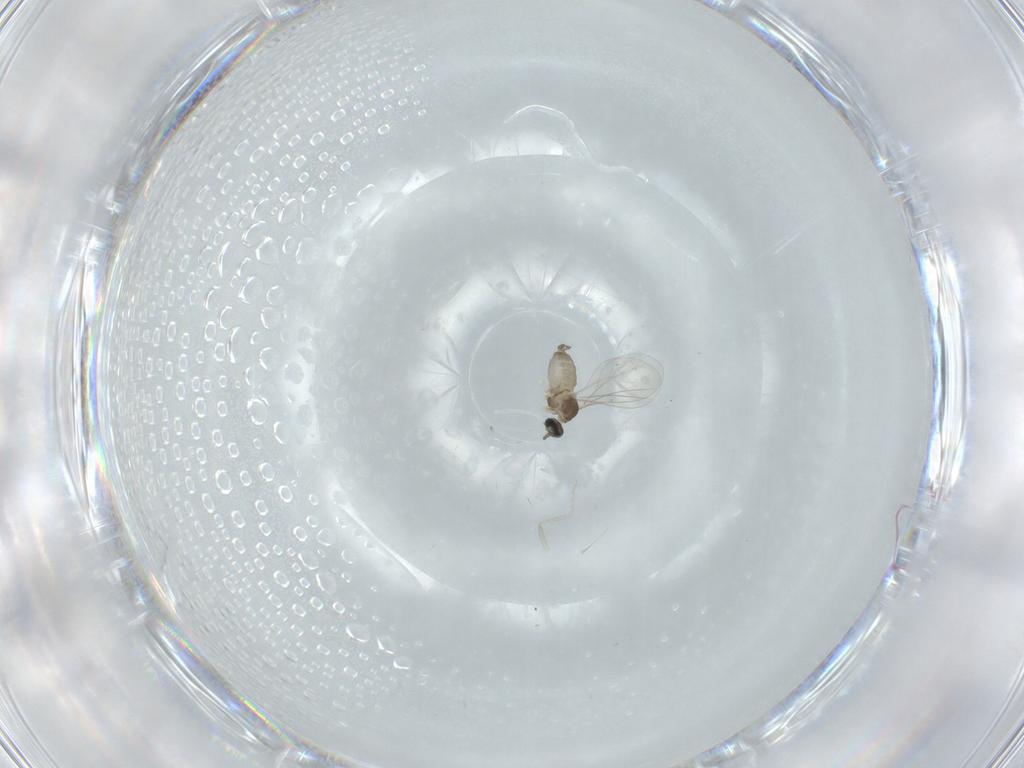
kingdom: Animalia
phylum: Arthropoda
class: Insecta
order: Diptera
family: Cecidomyiidae
